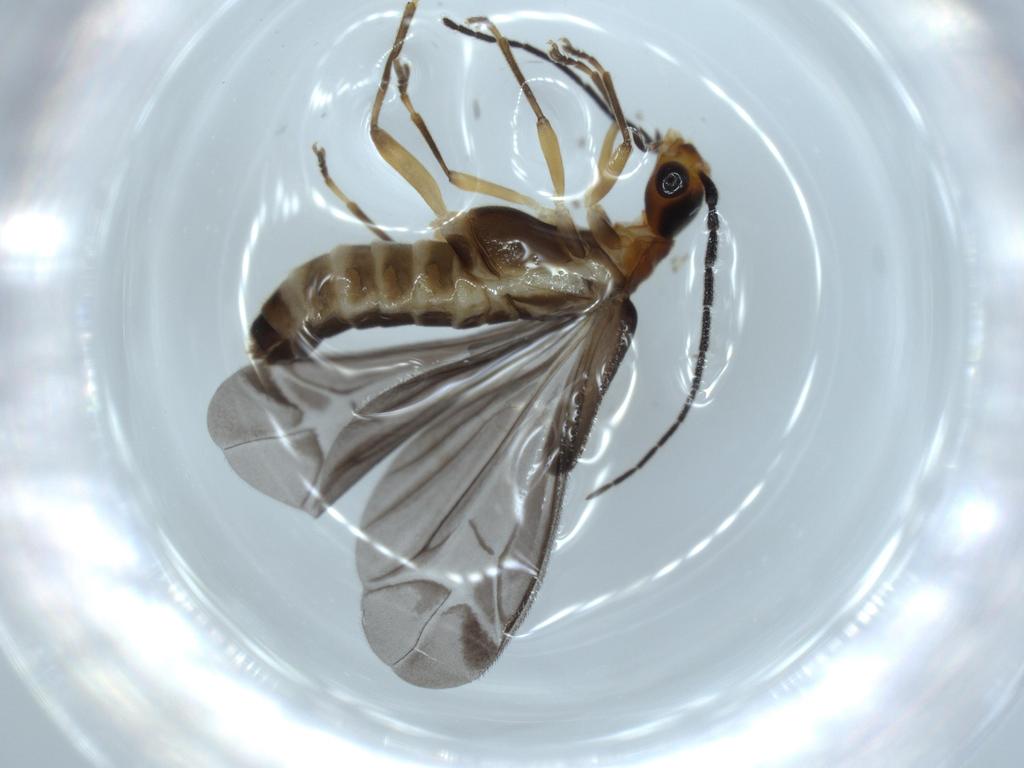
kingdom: Animalia
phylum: Arthropoda
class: Insecta
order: Coleoptera
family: Cantharidae
